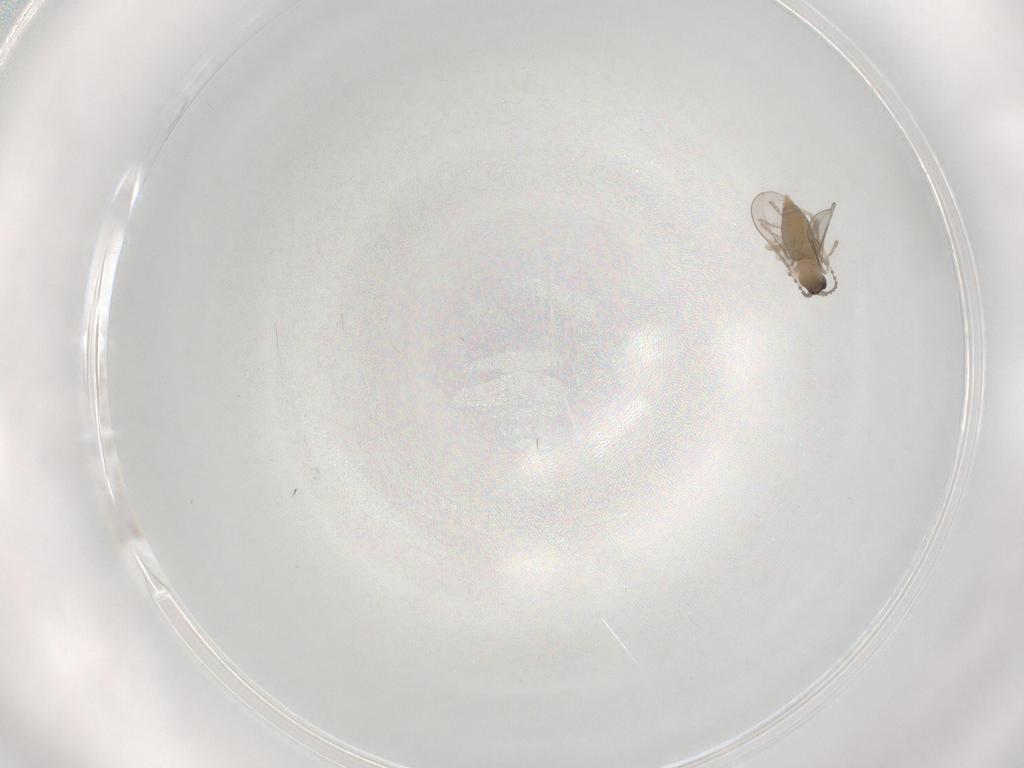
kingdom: Animalia
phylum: Arthropoda
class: Insecta
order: Diptera
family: Cecidomyiidae
